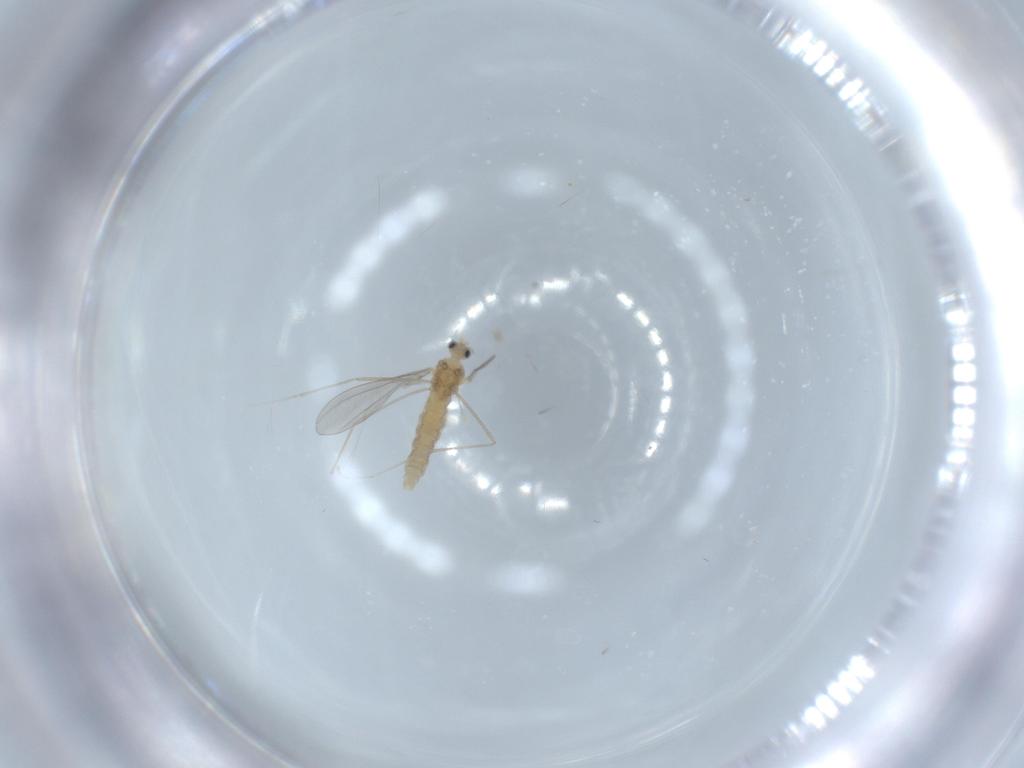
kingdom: Animalia
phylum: Arthropoda
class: Insecta
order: Diptera
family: Cecidomyiidae
